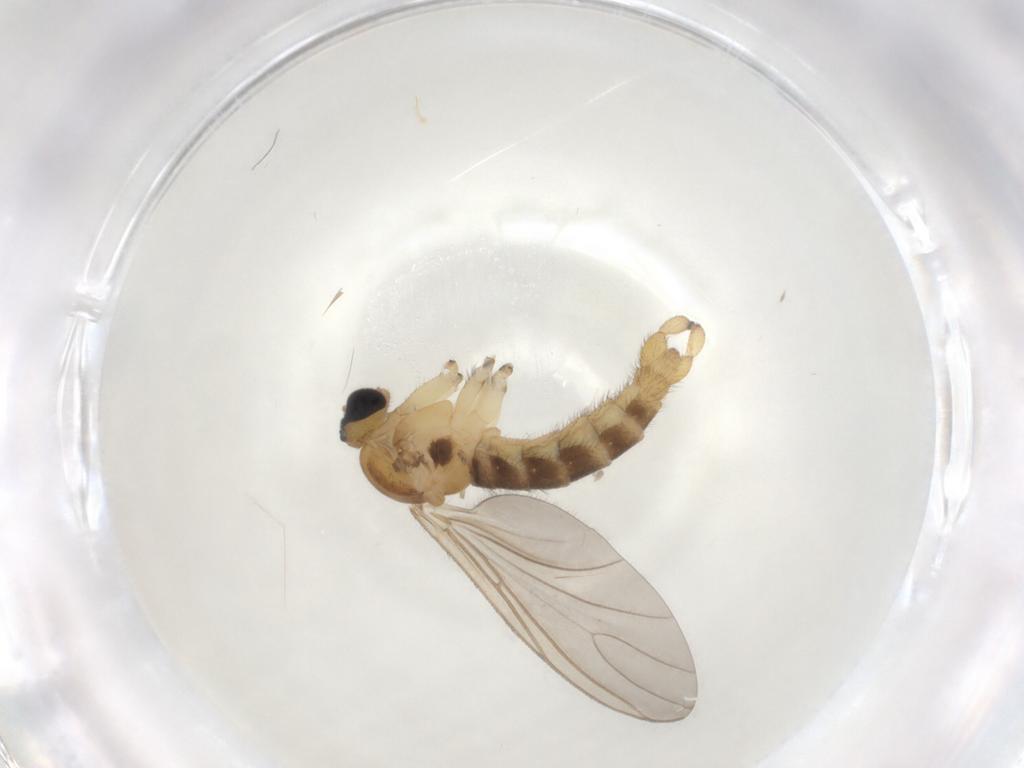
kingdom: Animalia
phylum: Arthropoda
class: Insecta
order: Diptera
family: Sciaridae
